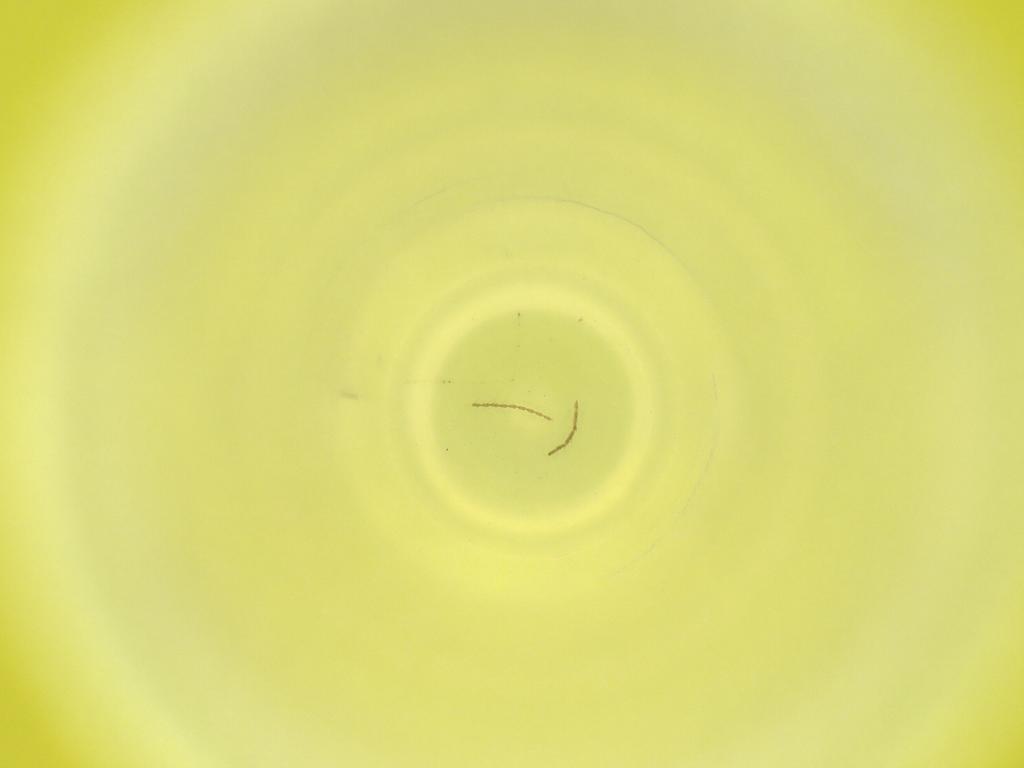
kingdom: Animalia
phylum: Arthropoda
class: Insecta
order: Diptera
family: Cecidomyiidae
